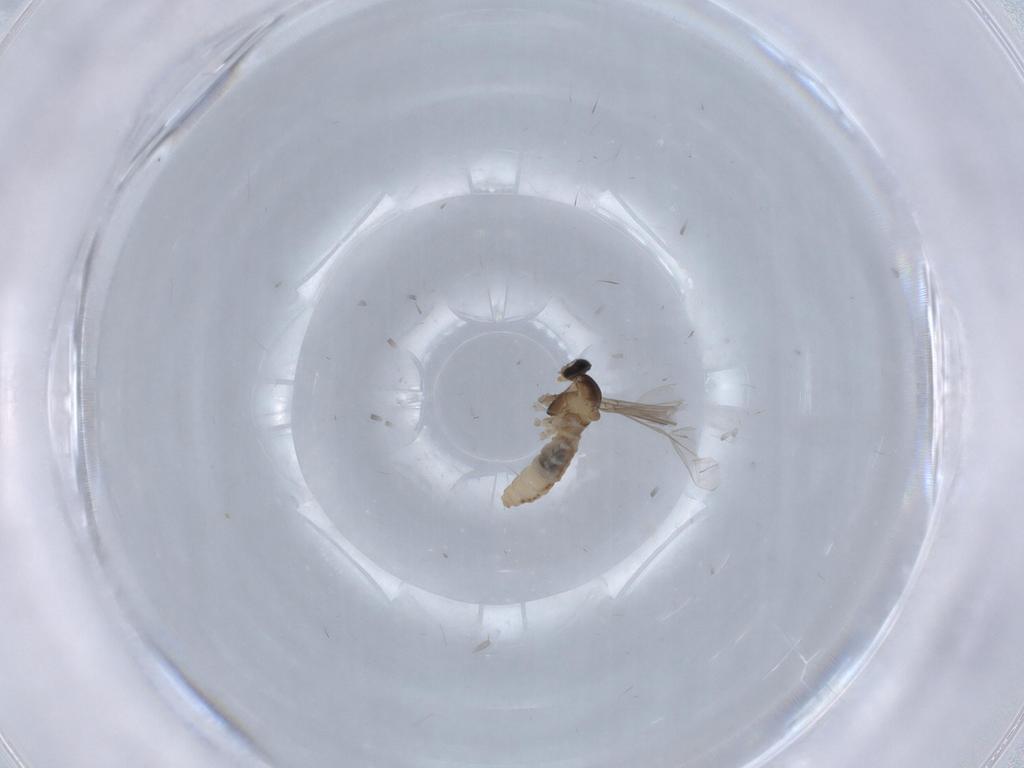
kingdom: Animalia
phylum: Arthropoda
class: Insecta
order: Diptera
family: Cecidomyiidae
